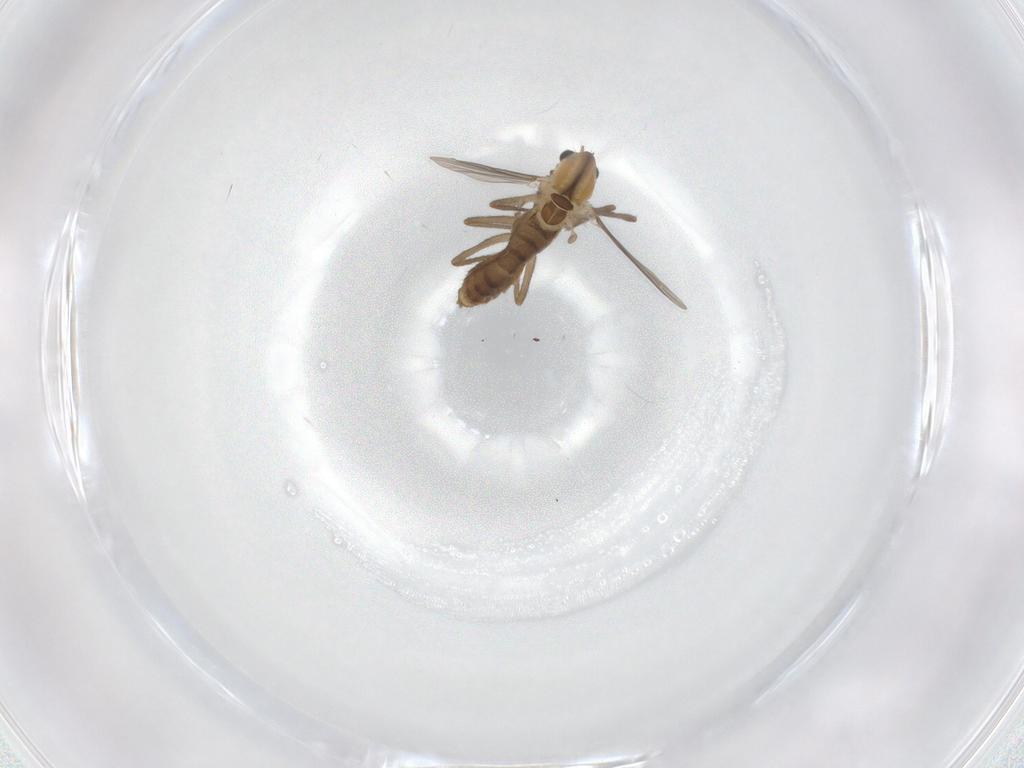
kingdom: Animalia
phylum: Arthropoda
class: Insecta
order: Diptera
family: Chironomidae
